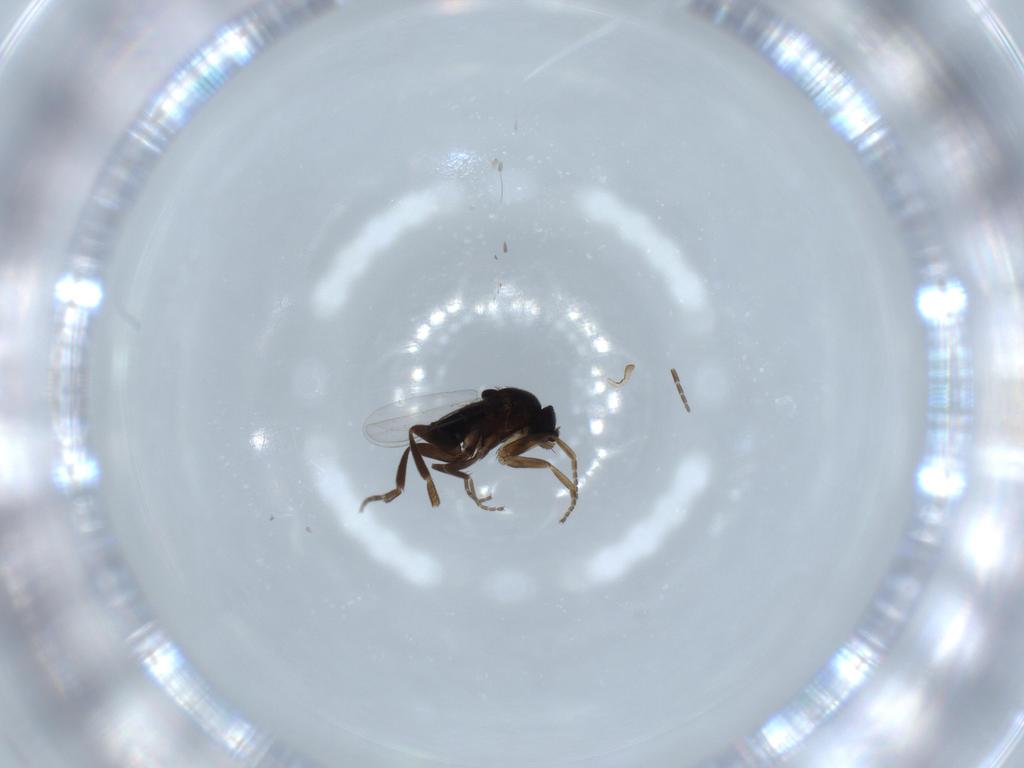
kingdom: Animalia
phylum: Arthropoda
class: Insecta
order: Diptera
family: Phoridae
